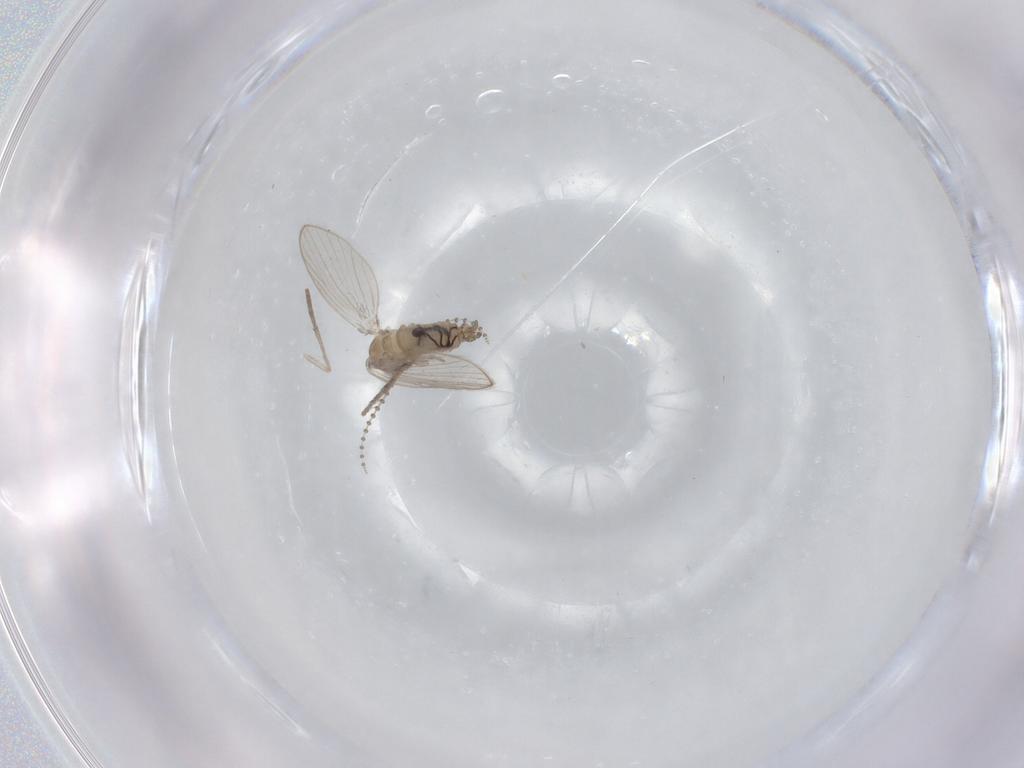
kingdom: Animalia
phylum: Arthropoda
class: Insecta
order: Diptera
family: Psychodidae
